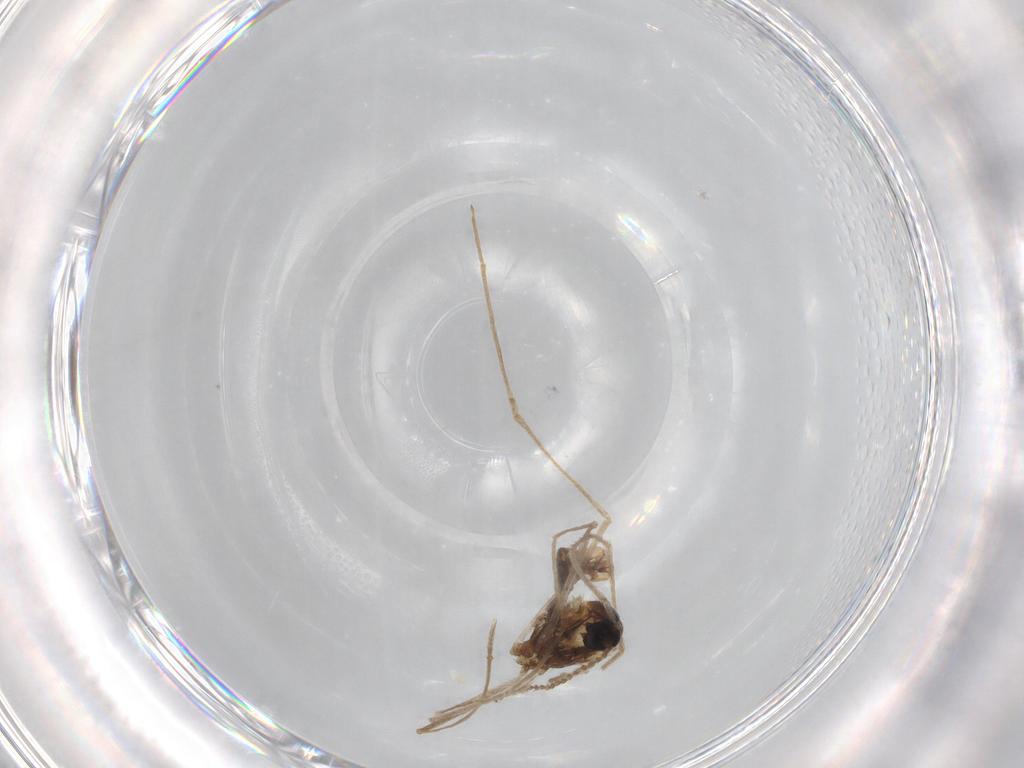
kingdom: Animalia
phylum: Arthropoda
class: Insecta
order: Diptera
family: Cecidomyiidae
